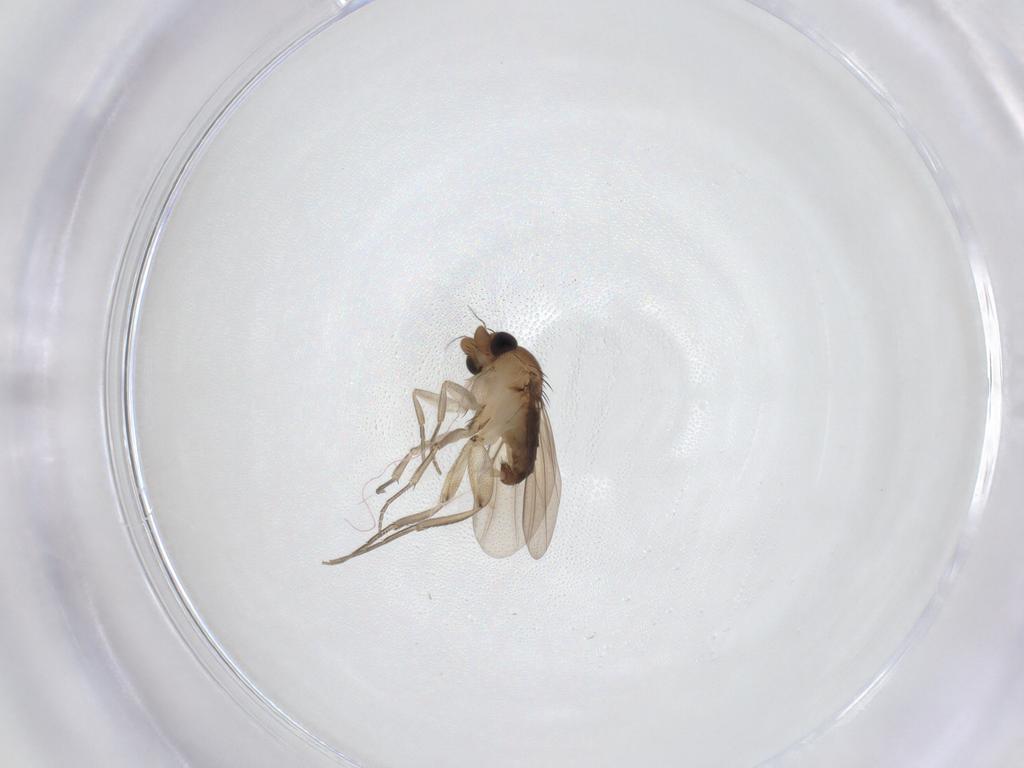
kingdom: Animalia
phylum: Arthropoda
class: Insecta
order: Diptera
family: Phoridae
